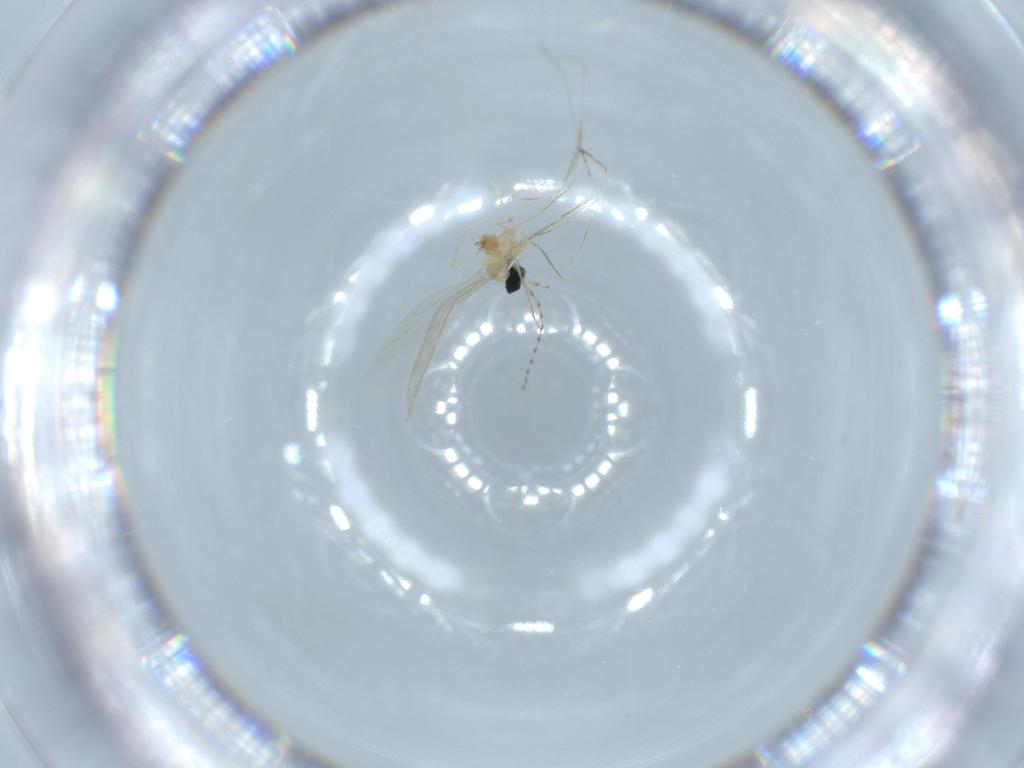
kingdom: Animalia
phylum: Arthropoda
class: Insecta
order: Diptera
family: Cecidomyiidae
